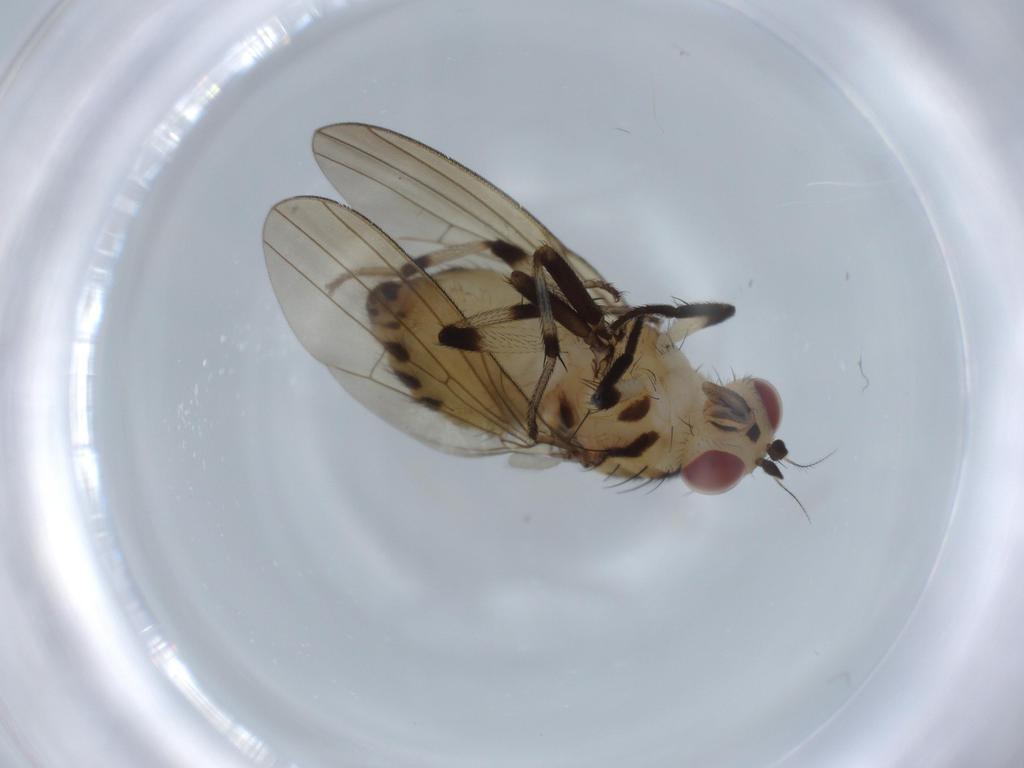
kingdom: Animalia
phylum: Arthropoda
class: Insecta
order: Diptera
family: Lauxaniidae
